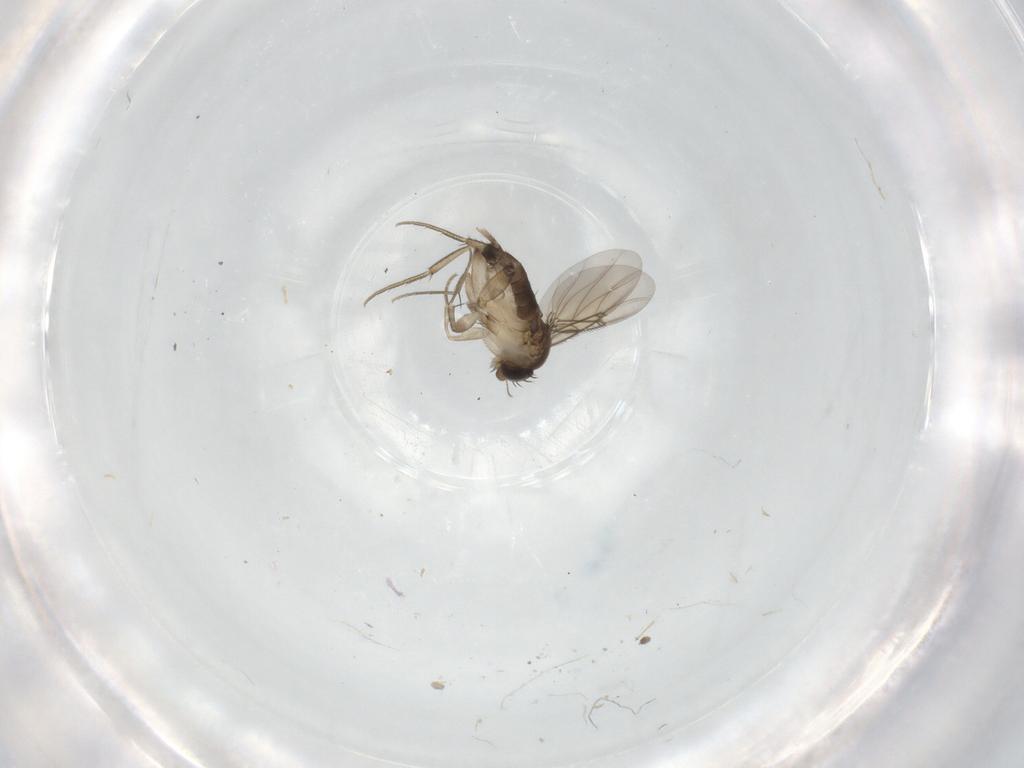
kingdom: Animalia
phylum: Arthropoda
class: Insecta
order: Diptera
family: Phoridae
